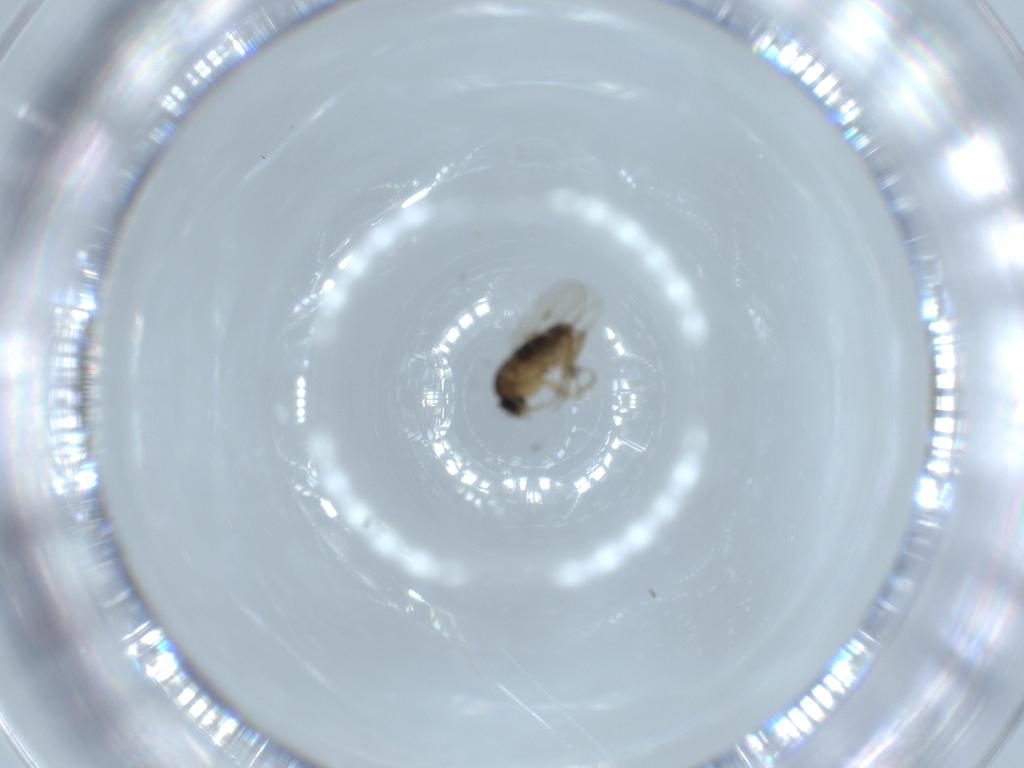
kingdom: Animalia
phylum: Arthropoda
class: Insecta
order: Diptera
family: Phoridae
